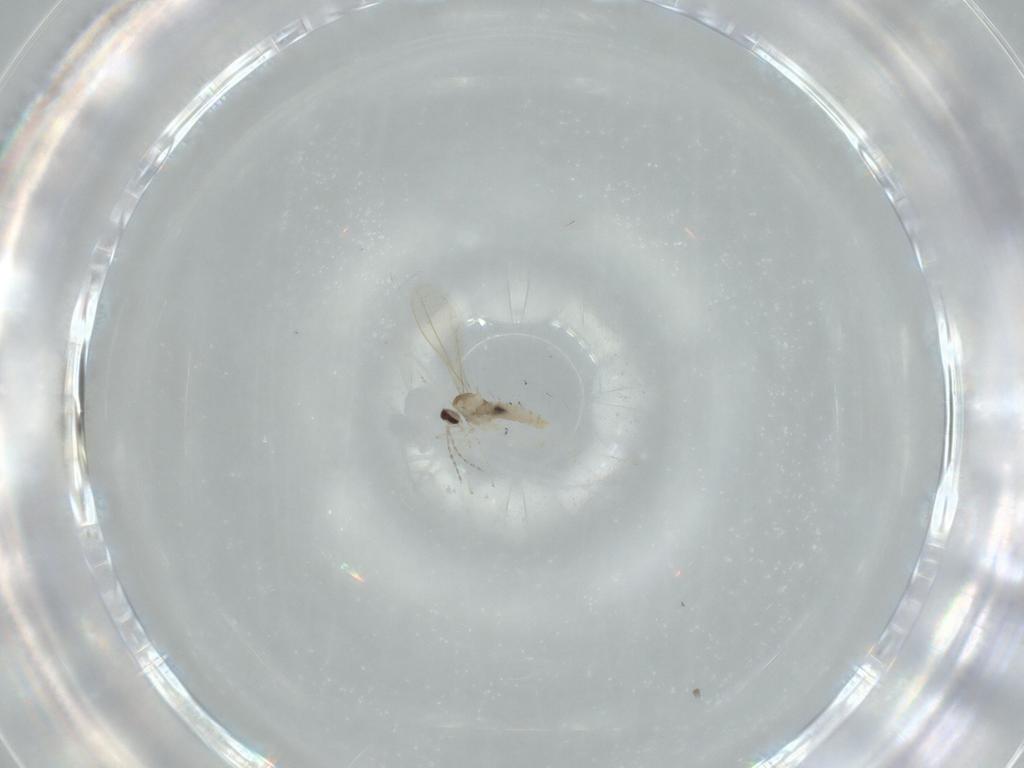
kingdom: Animalia
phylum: Arthropoda
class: Insecta
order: Diptera
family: Cecidomyiidae
